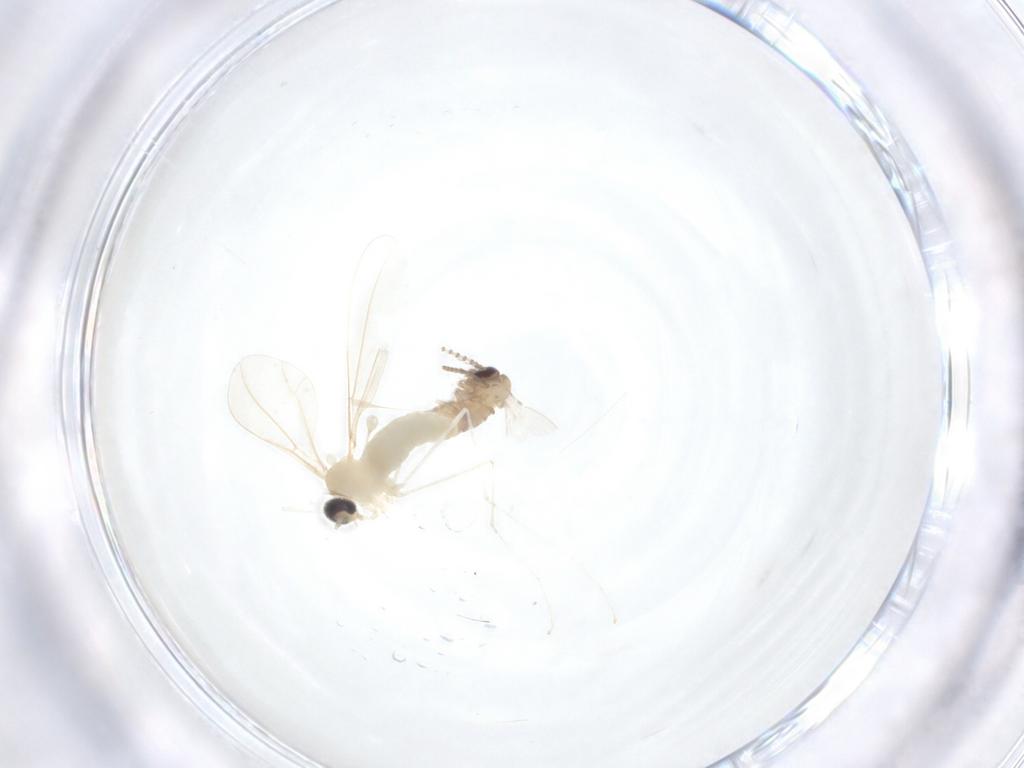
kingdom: Animalia
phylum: Arthropoda
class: Insecta
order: Diptera
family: Cecidomyiidae
